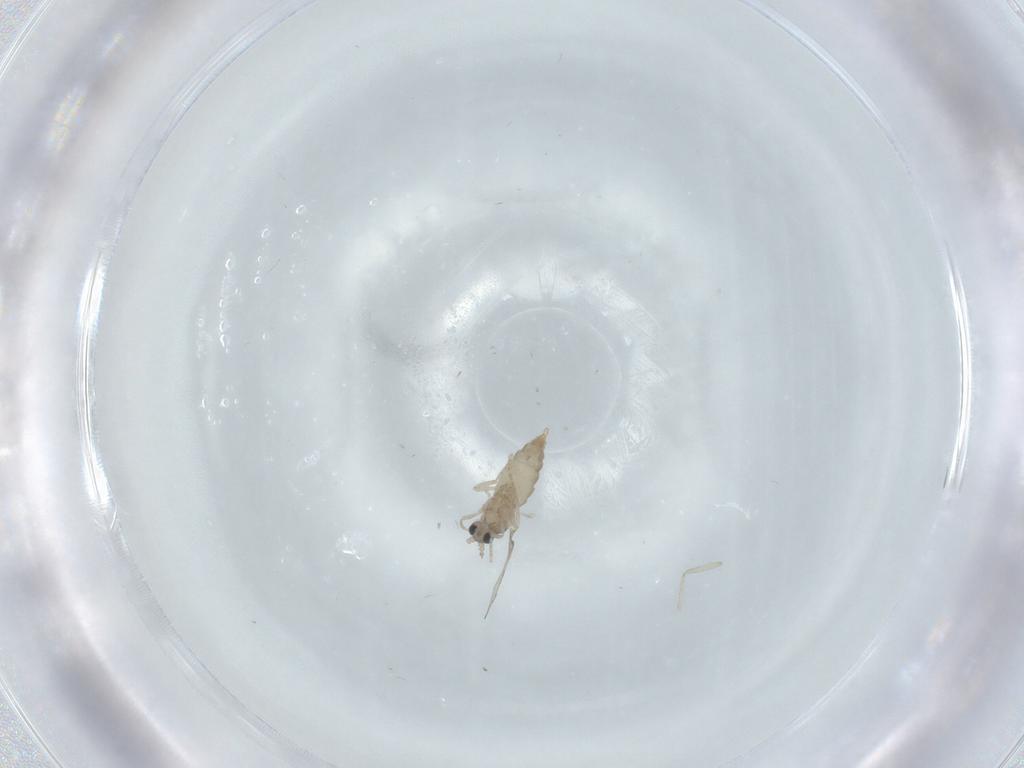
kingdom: Animalia
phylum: Arthropoda
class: Insecta
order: Diptera
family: Cecidomyiidae
